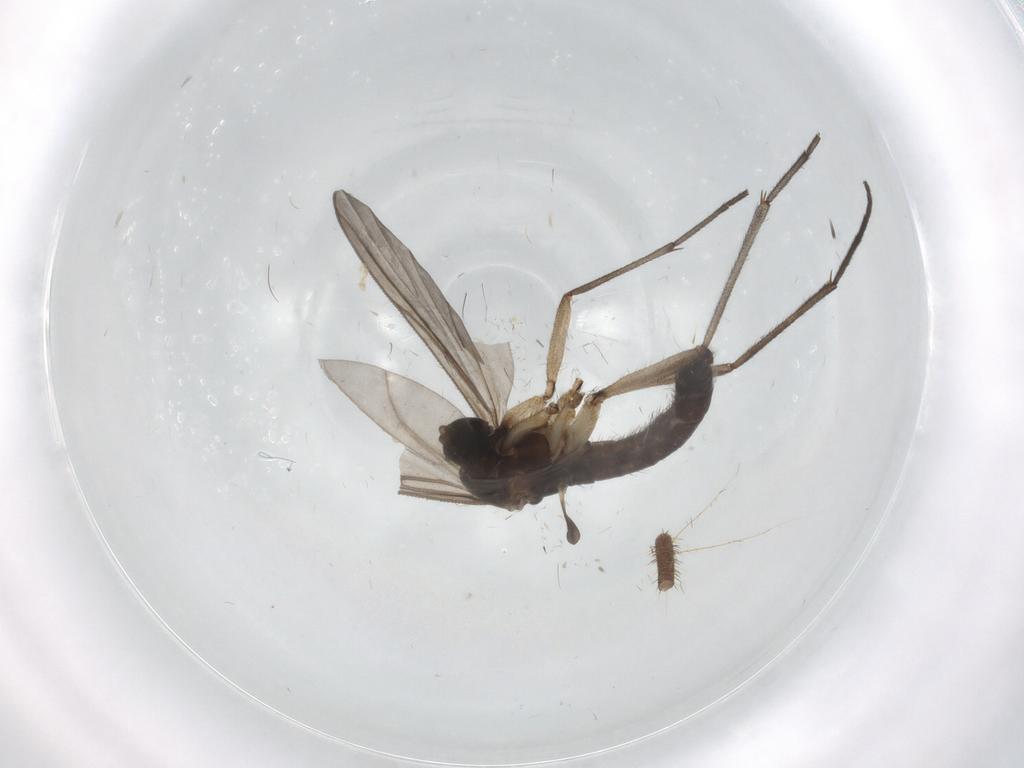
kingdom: Animalia
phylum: Arthropoda
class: Insecta
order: Diptera
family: Sciaridae
